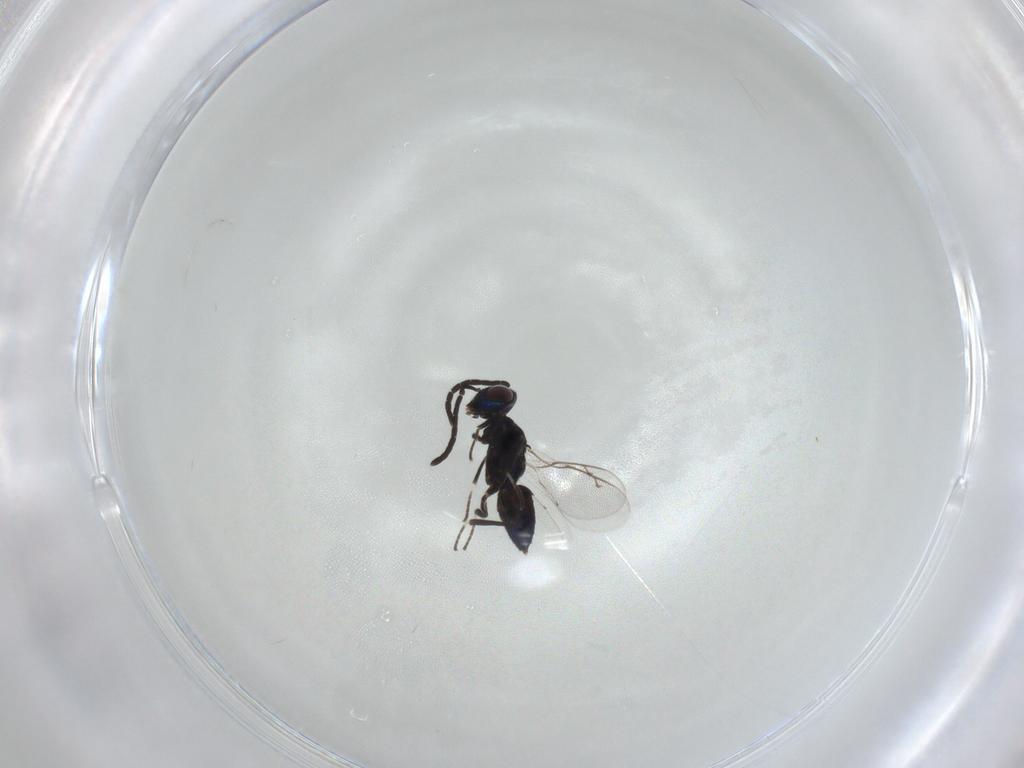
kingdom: Animalia
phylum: Arthropoda
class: Insecta
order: Hymenoptera
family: Eupelmidae
